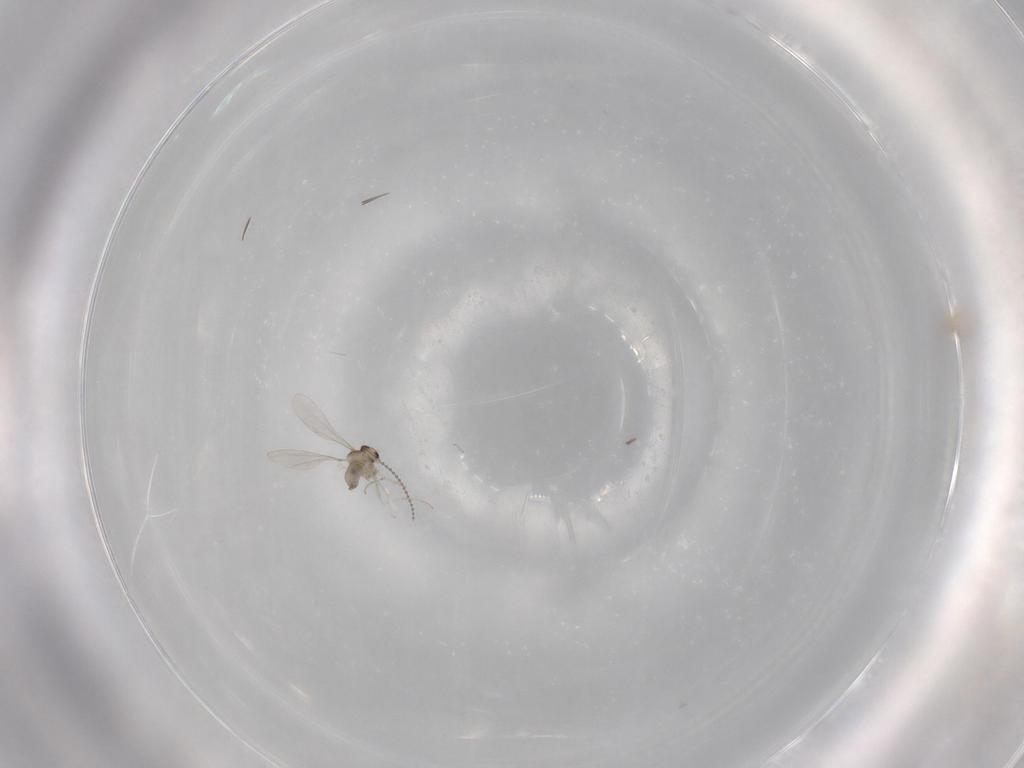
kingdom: Animalia
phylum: Arthropoda
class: Insecta
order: Diptera
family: Cecidomyiidae
